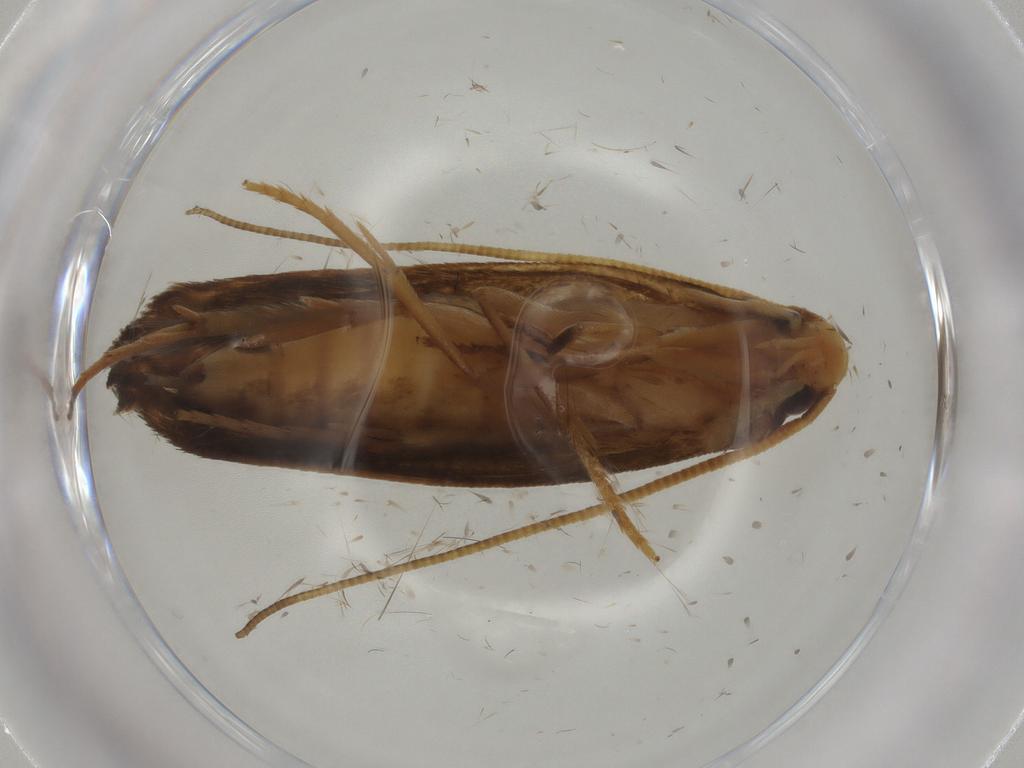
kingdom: Animalia
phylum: Arthropoda
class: Insecta
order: Lepidoptera
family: Tineidae
